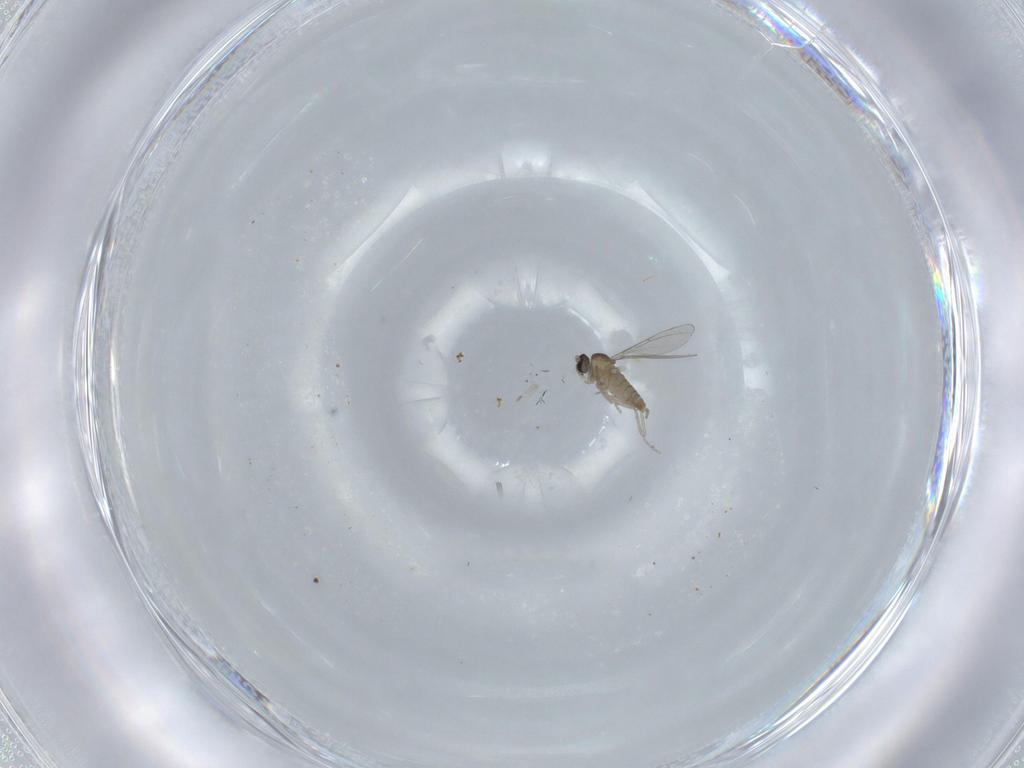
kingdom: Animalia
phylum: Arthropoda
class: Insecta
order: Diptera
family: Cecidomyiidae
